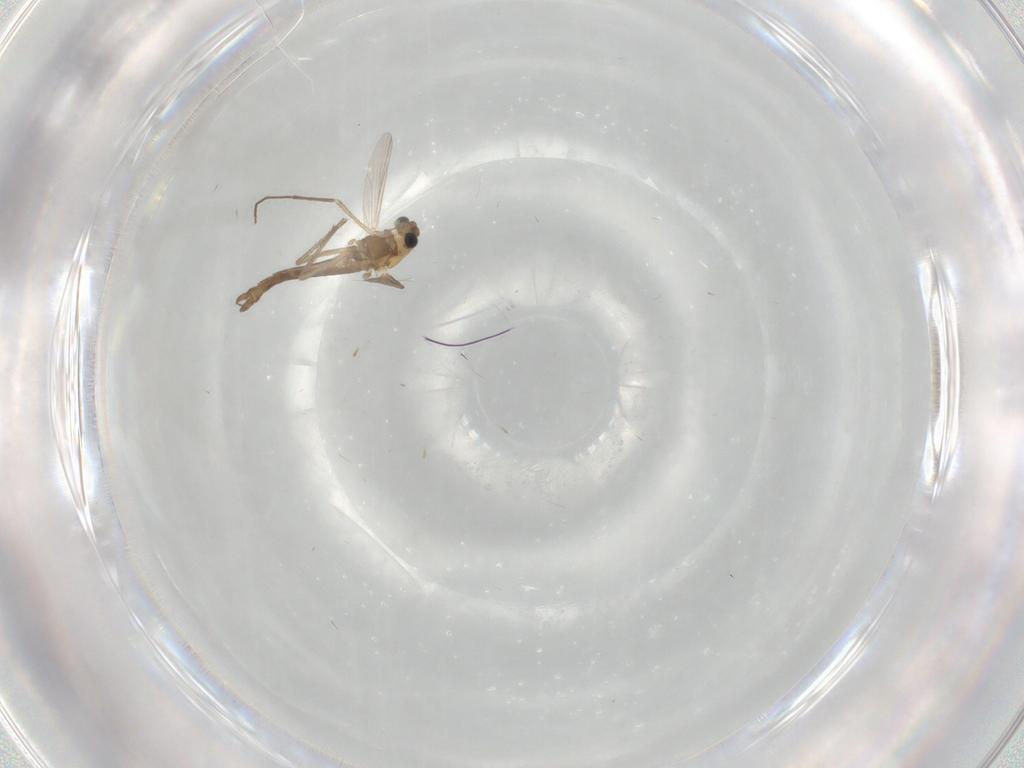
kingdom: Animalia
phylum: Arthropoda
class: Insecta
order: Diptera
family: Chironomidae
